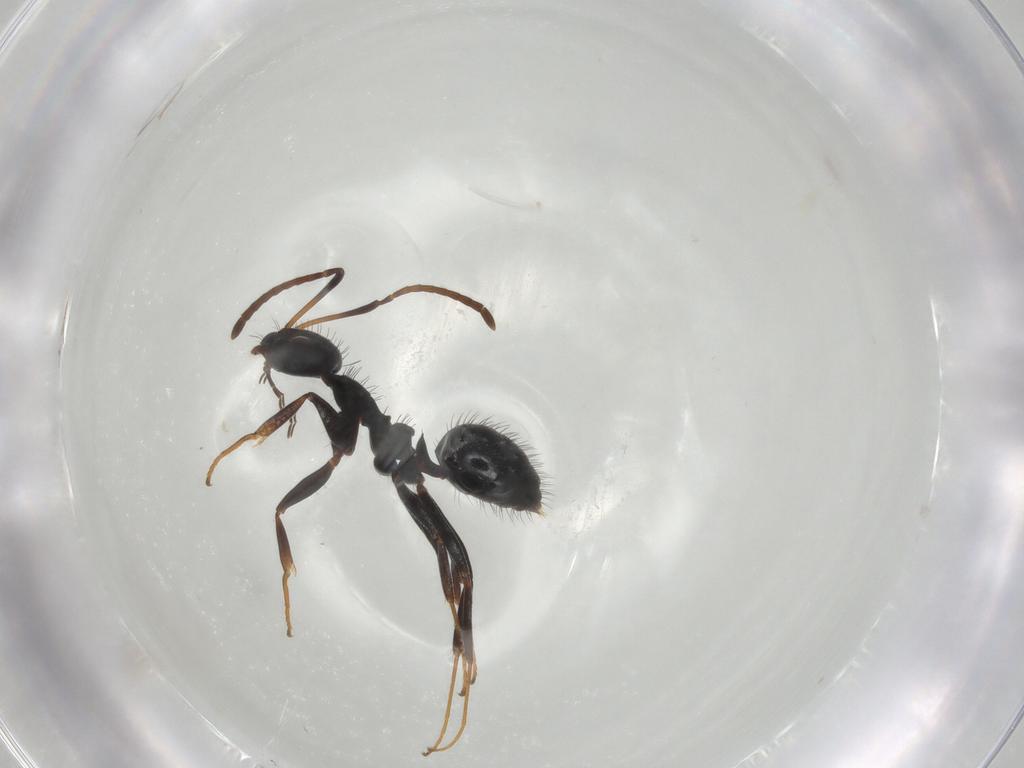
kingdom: Animalia
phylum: Arthropoda
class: Insecta
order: Hymenoptera
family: Formicidae
